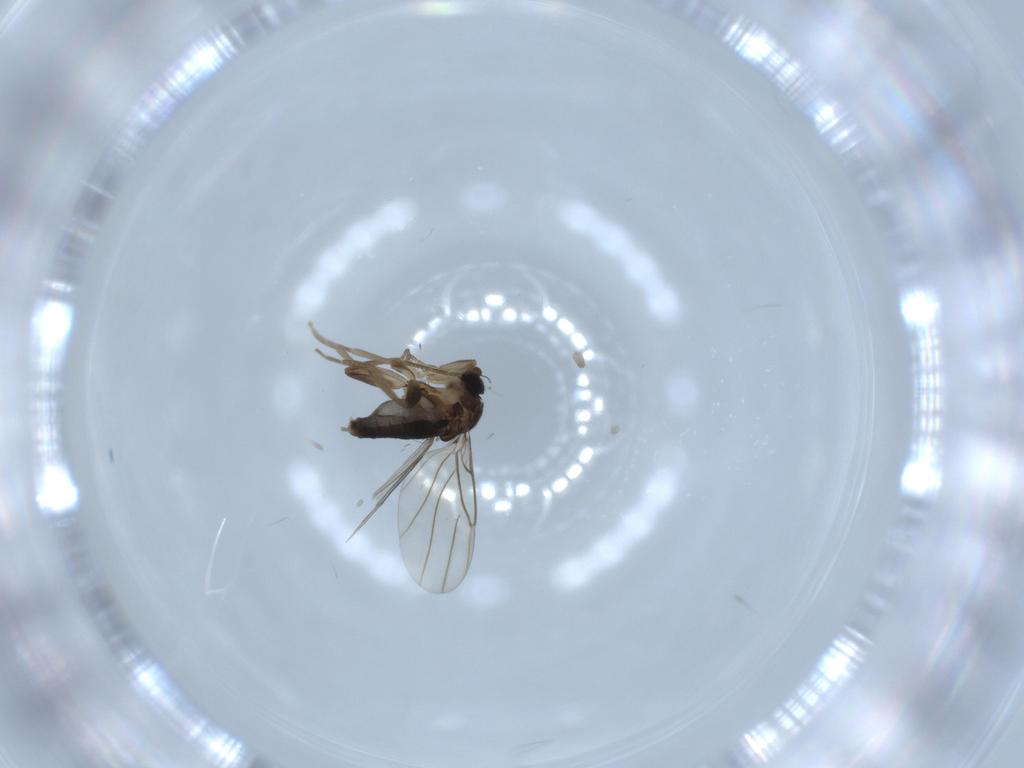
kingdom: Animalia
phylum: Arthropoda
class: Insecta
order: Diptera
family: Phoridae
